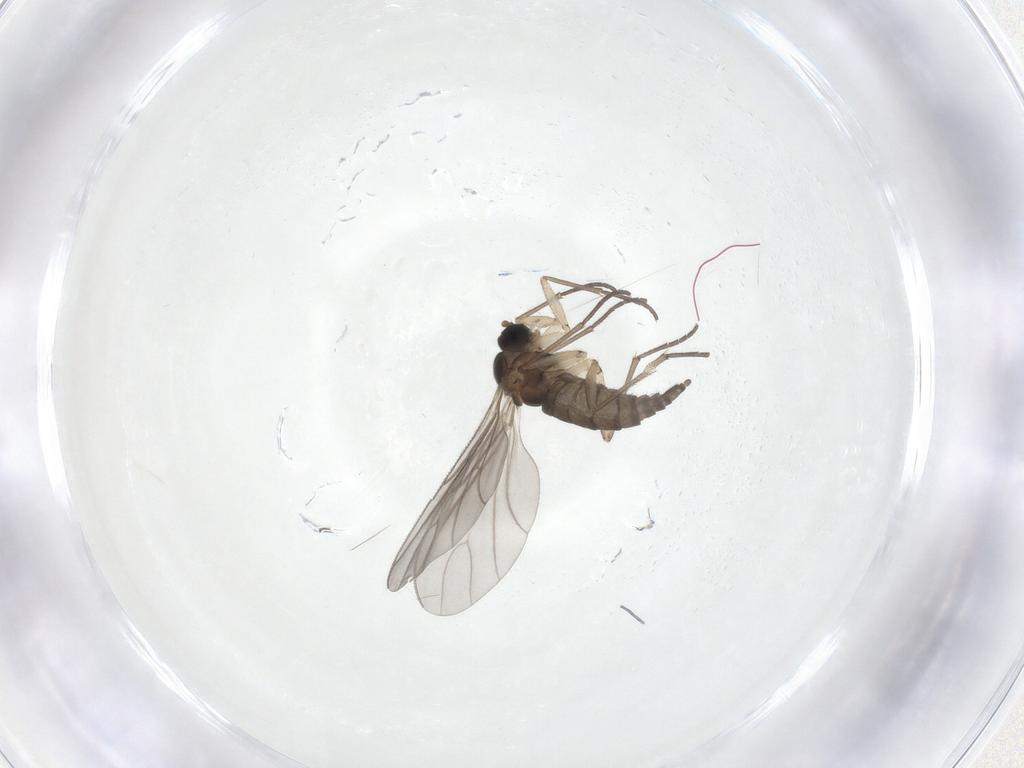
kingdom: Animalia
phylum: Arthropoda
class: Insecta
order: Diptera
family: Sciaridae
